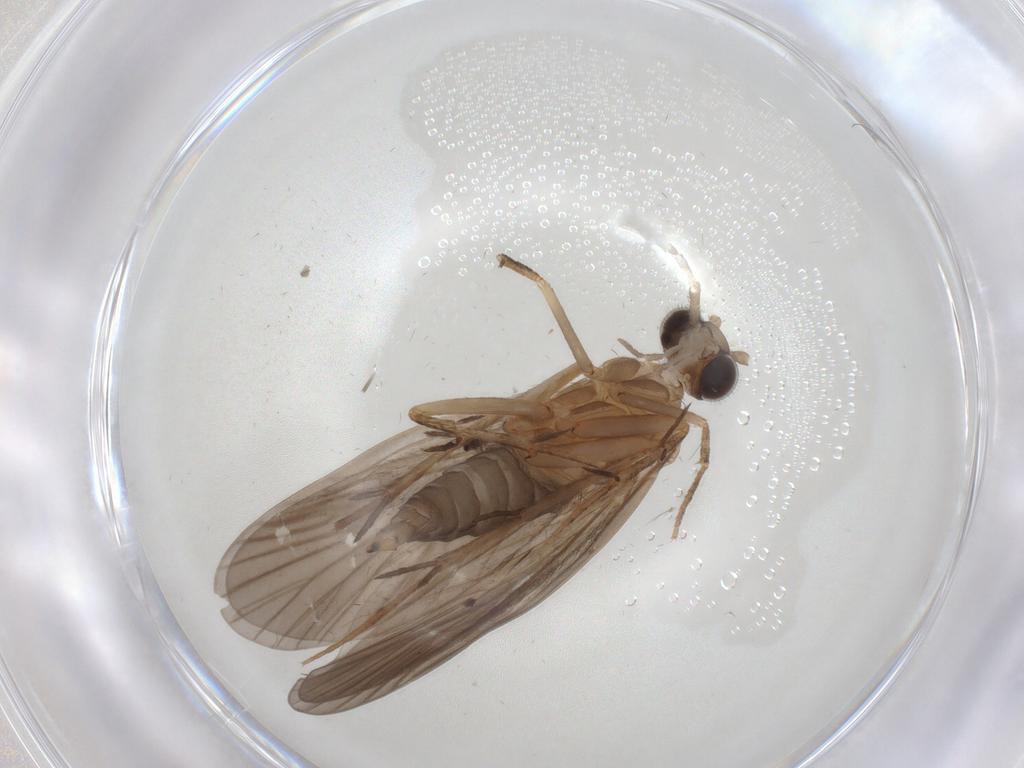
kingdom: Animalia
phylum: Arthropoda
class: Insecta
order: Trichoptera
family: Philopotamidae
